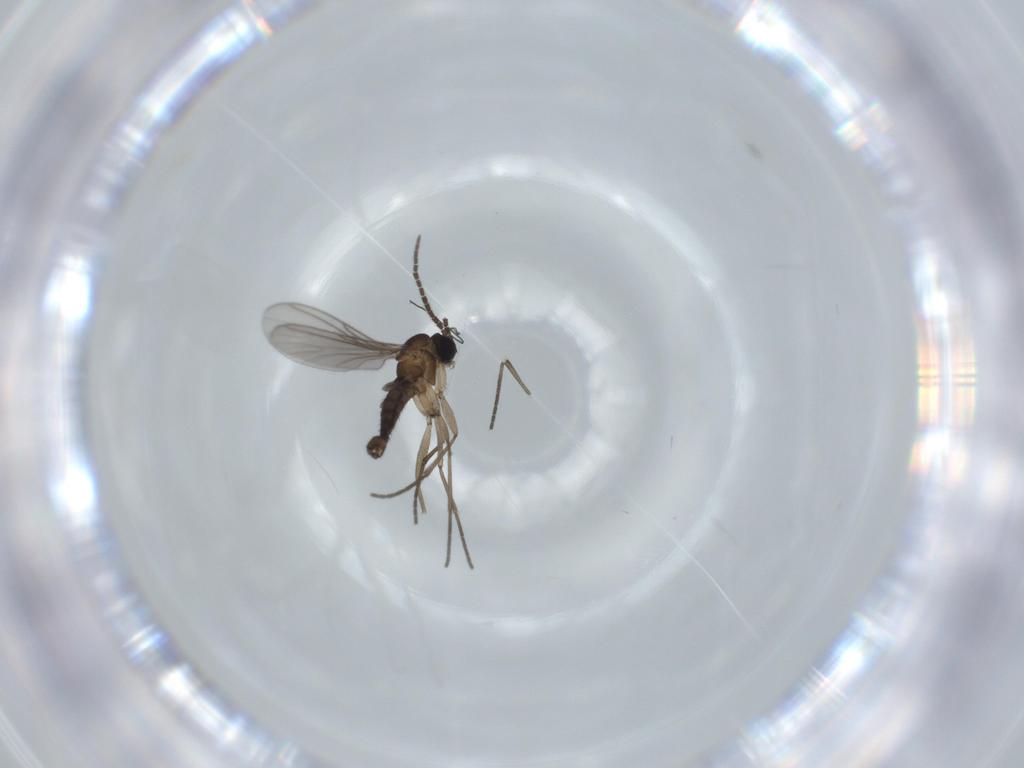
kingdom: Animalia
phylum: Arthropoda
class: Insecta
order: Diptera
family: Sciaridae
